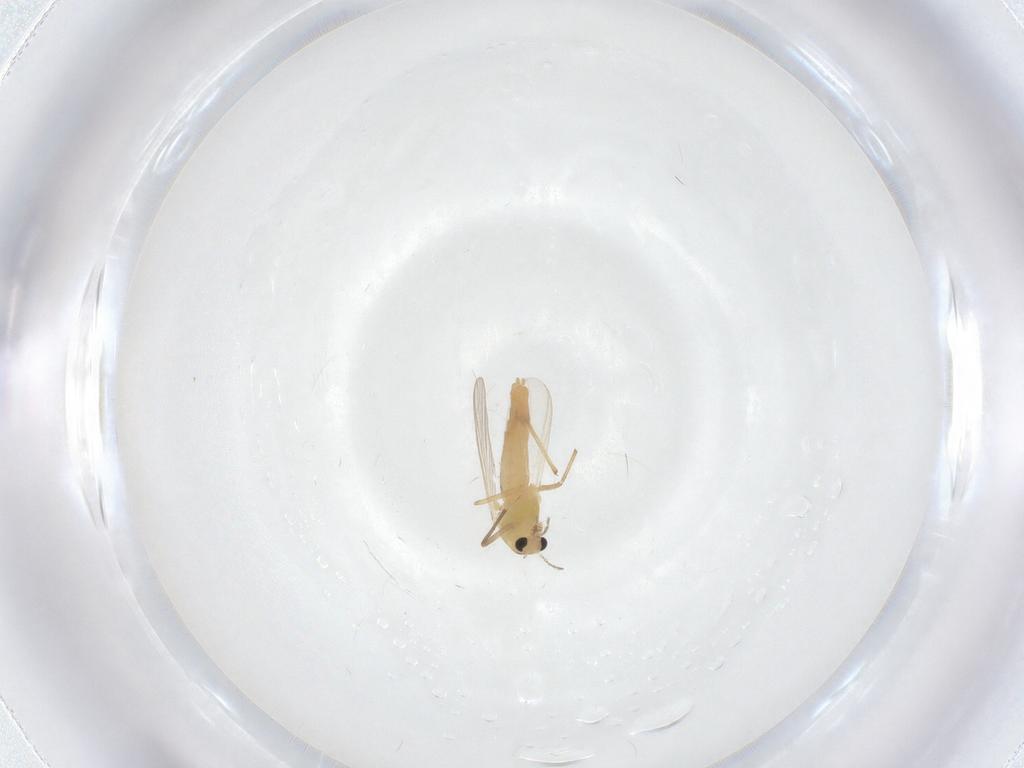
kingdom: Animalia
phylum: Arthropoda
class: Insecta
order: Diptera
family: Chironomidae
